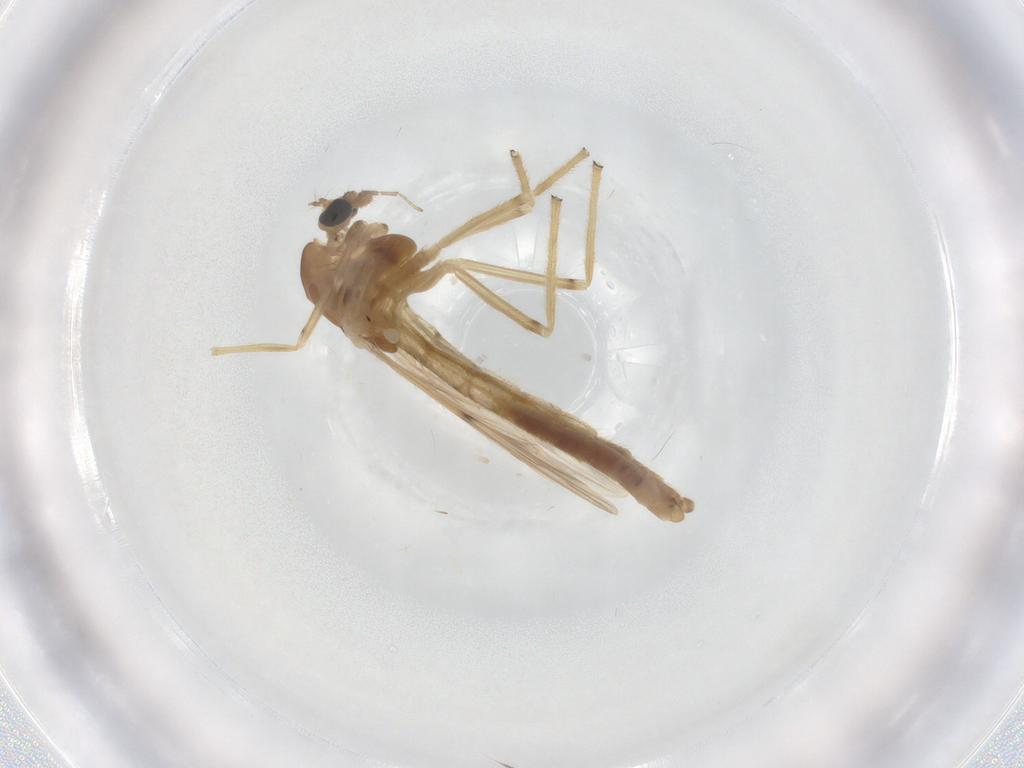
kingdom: Animalia
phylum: Arthropoda
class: Insecta
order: Diptera
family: Chironomidae
